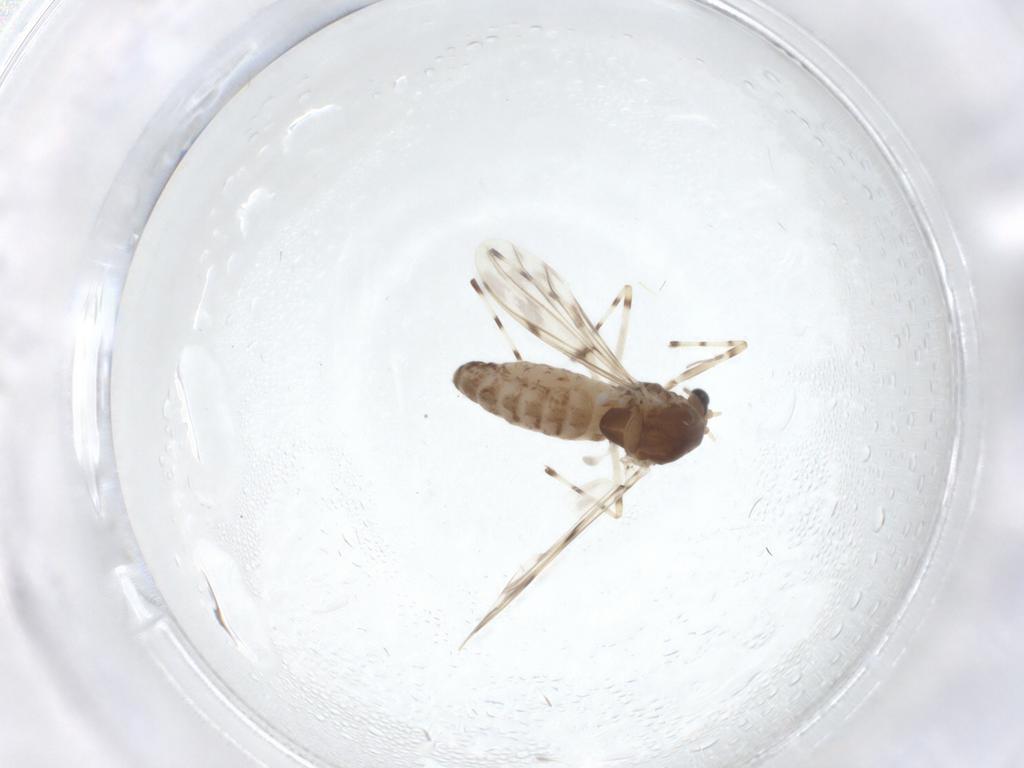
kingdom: Animalia
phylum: Arthropoda
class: Insecta
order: Diptera
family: Chironomidae
